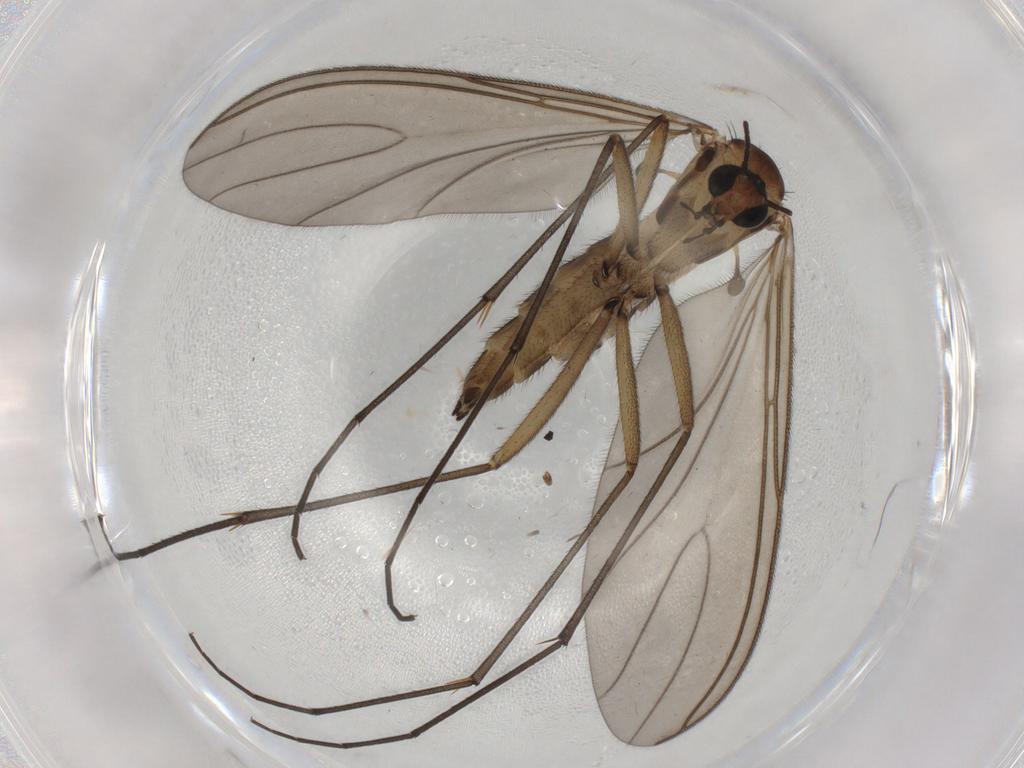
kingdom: Animalia
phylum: Arthropoda
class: Insecta
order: Diptera
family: Sciaridae
